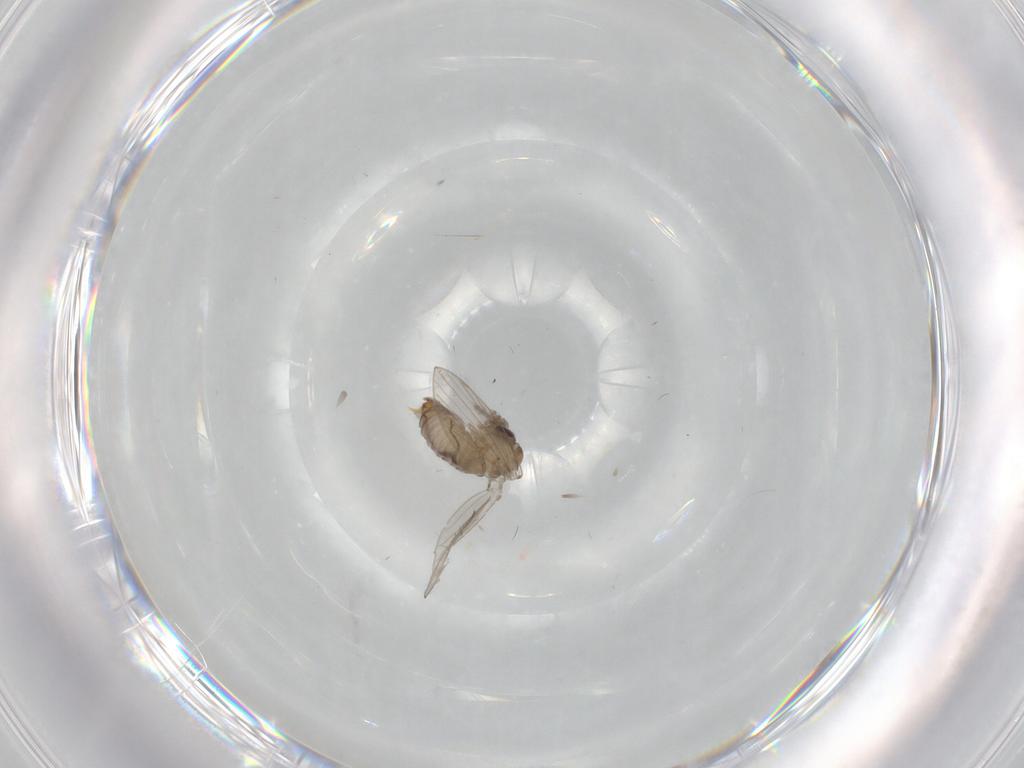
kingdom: Animalia
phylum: Arthropoda
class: Insecta
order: Diptera
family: Psychodidae
